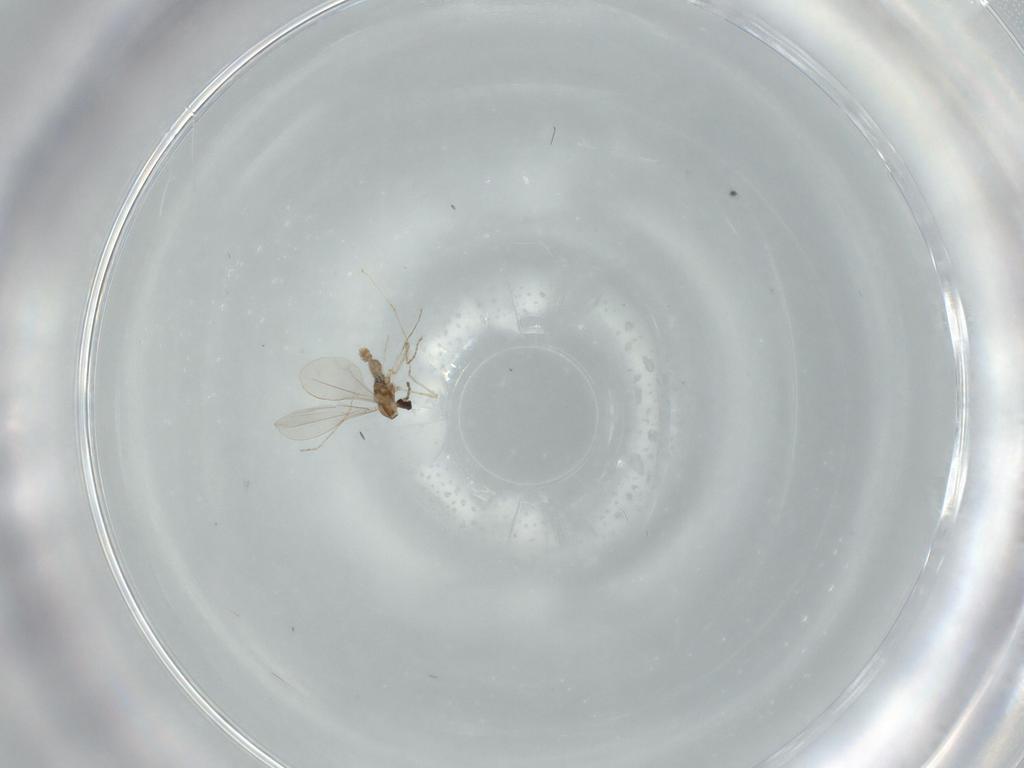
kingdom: Animalia
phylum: Arthropoda
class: Insecta
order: Diptera
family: Cecidomyiidae
